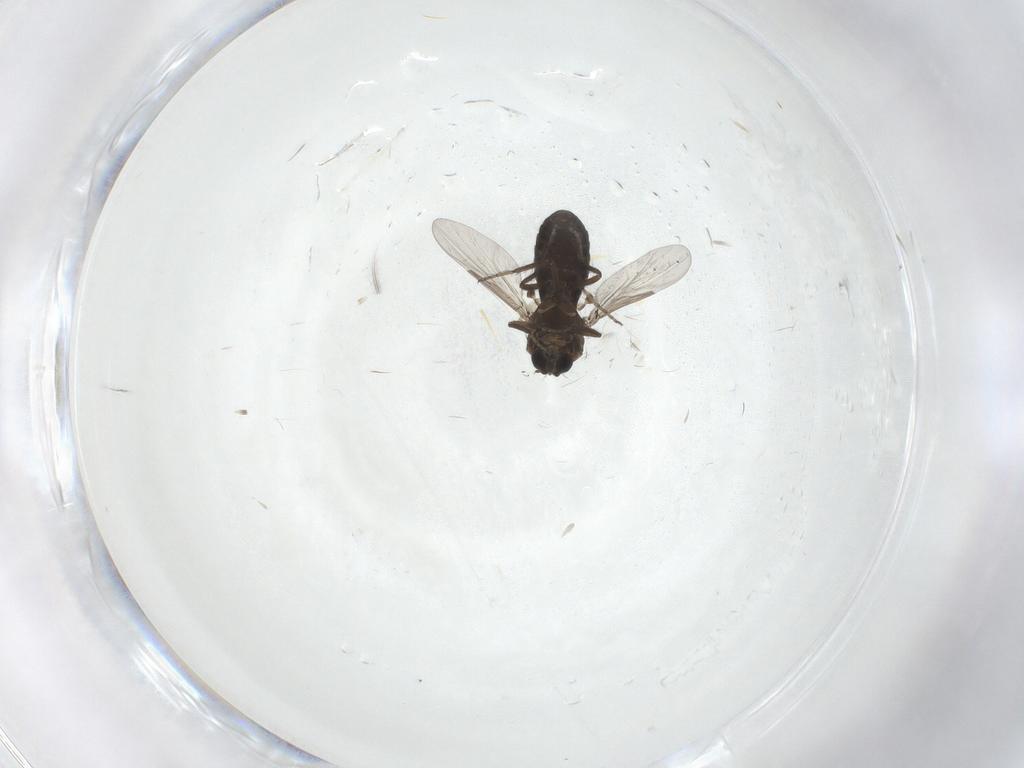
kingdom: Animalia
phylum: Arthropoda
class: Insecta
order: Diptera
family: Ceratopogonidae
